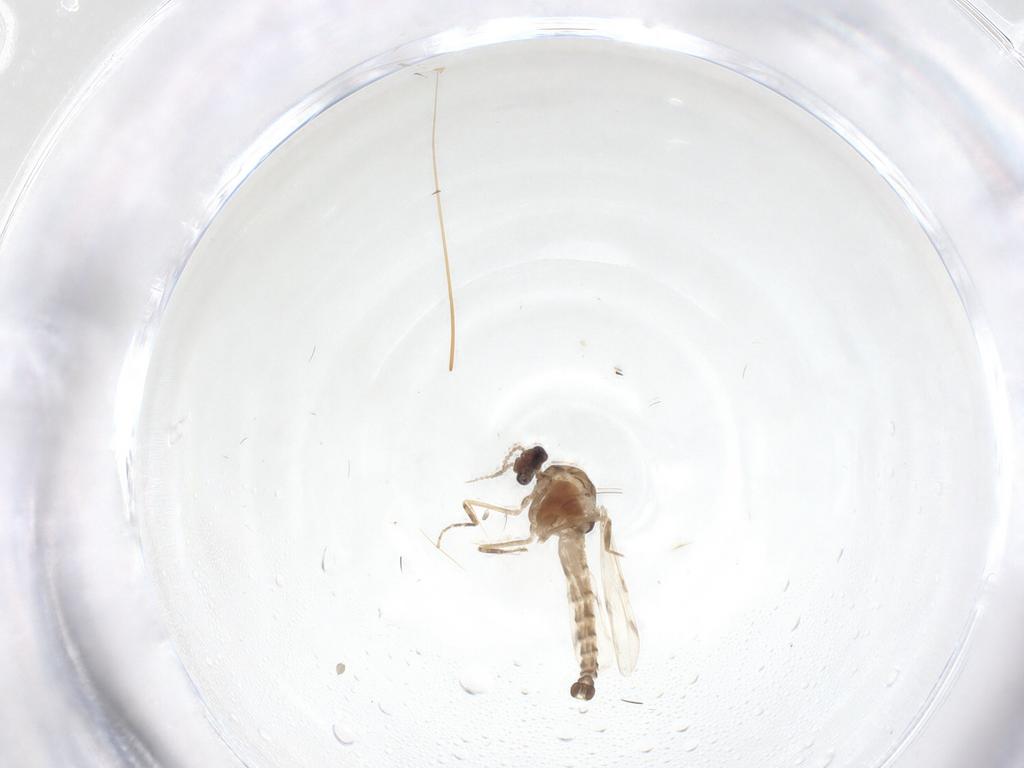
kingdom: Animalia
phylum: Arthropoda
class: Insecta
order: Diptera
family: Ceratopogonidae
